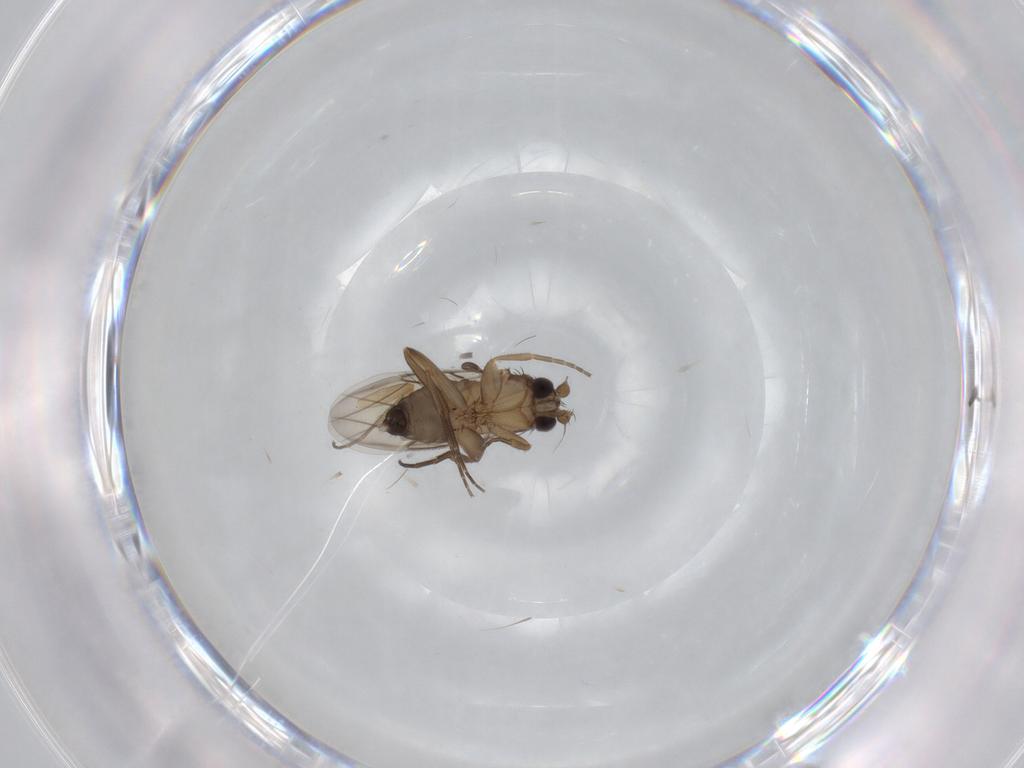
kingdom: Animalia
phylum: Arthropoda
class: Insecta
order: Diptera
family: Phoridae
